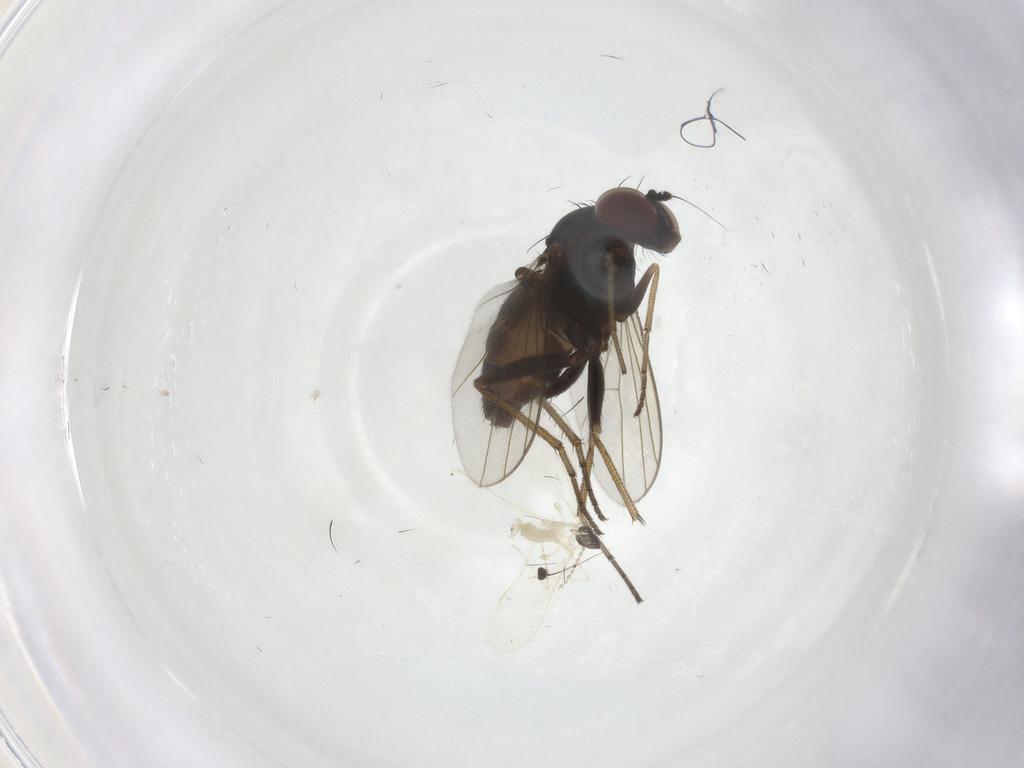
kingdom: Animalia
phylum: Arthropoda
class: Insecta
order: Diptera
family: Dolichopodidae
